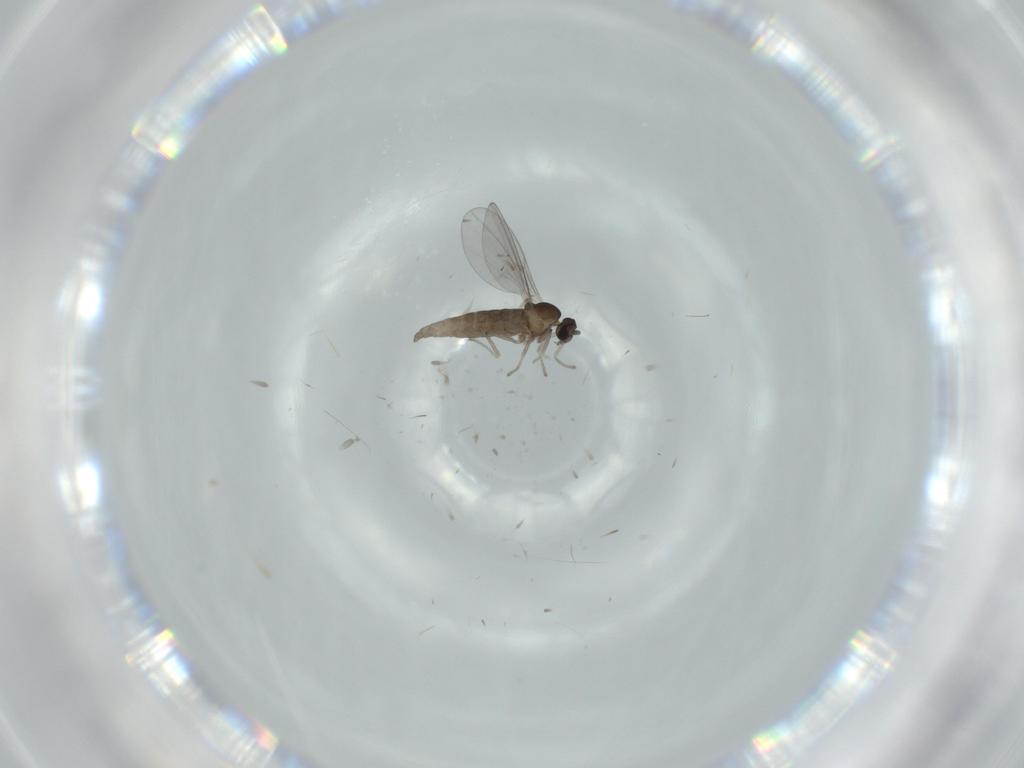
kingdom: Animalia
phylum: Arthropoda
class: Insecta
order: Diptera
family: Cecidomyiidae
